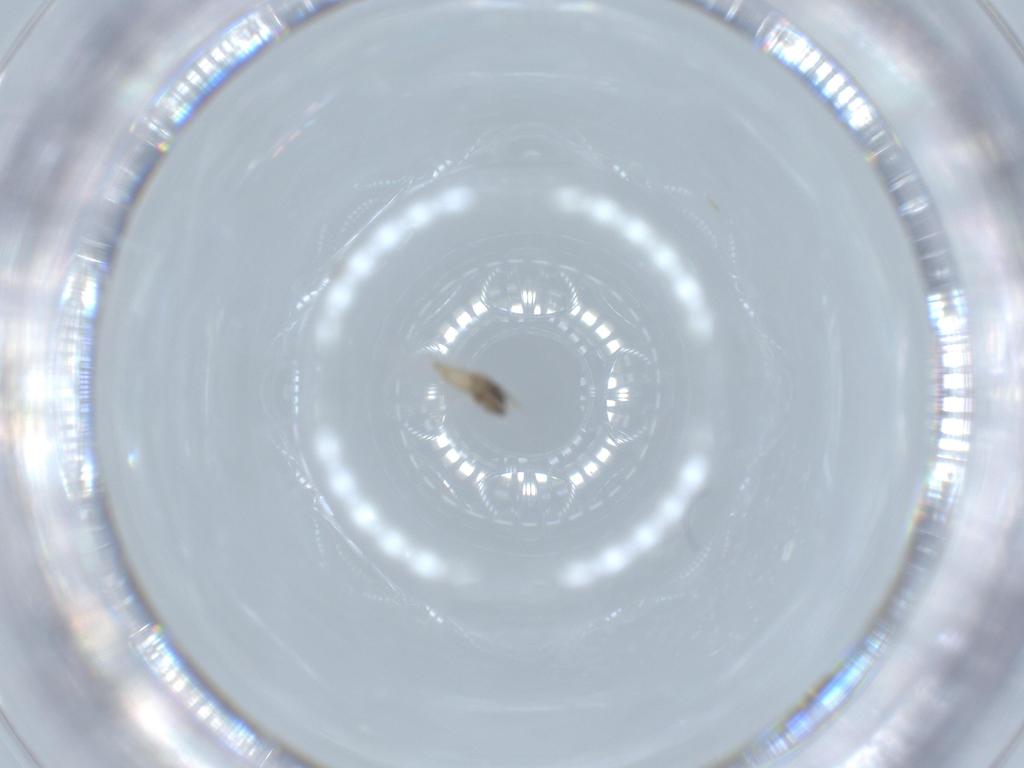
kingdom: Animalia
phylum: Arthropoda
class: Insecta
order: Diptera
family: Cecidomyiidae
